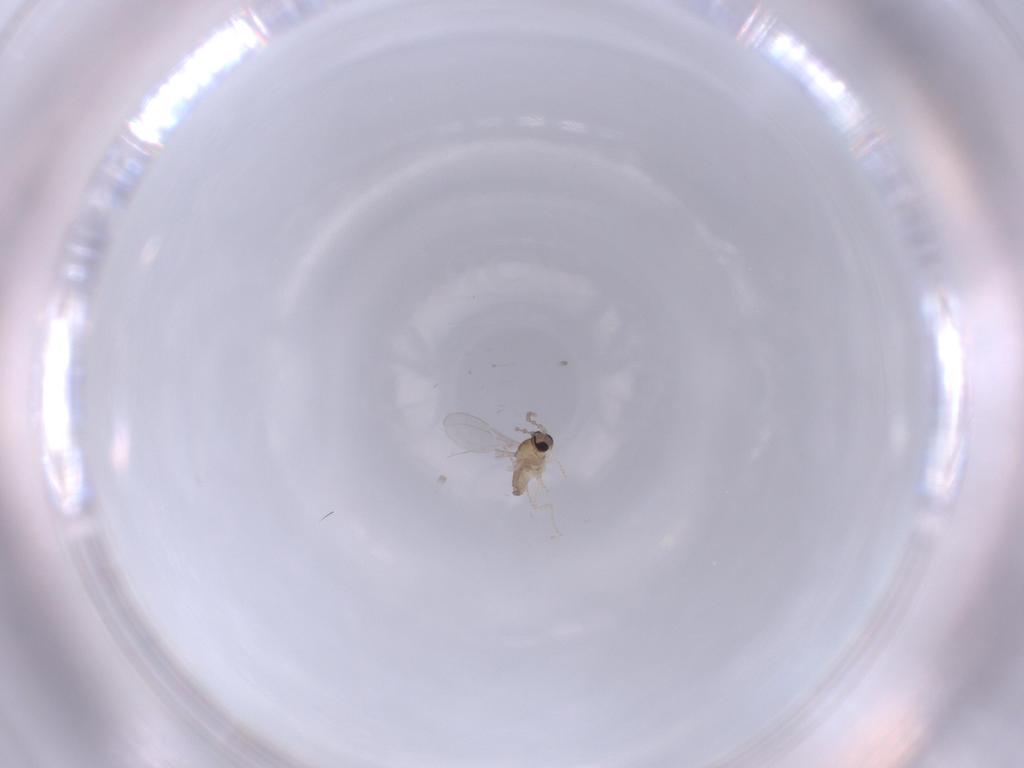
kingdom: Animalia
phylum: Arthropoda
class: Insecta
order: Diptera
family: Cecidomyiidae
